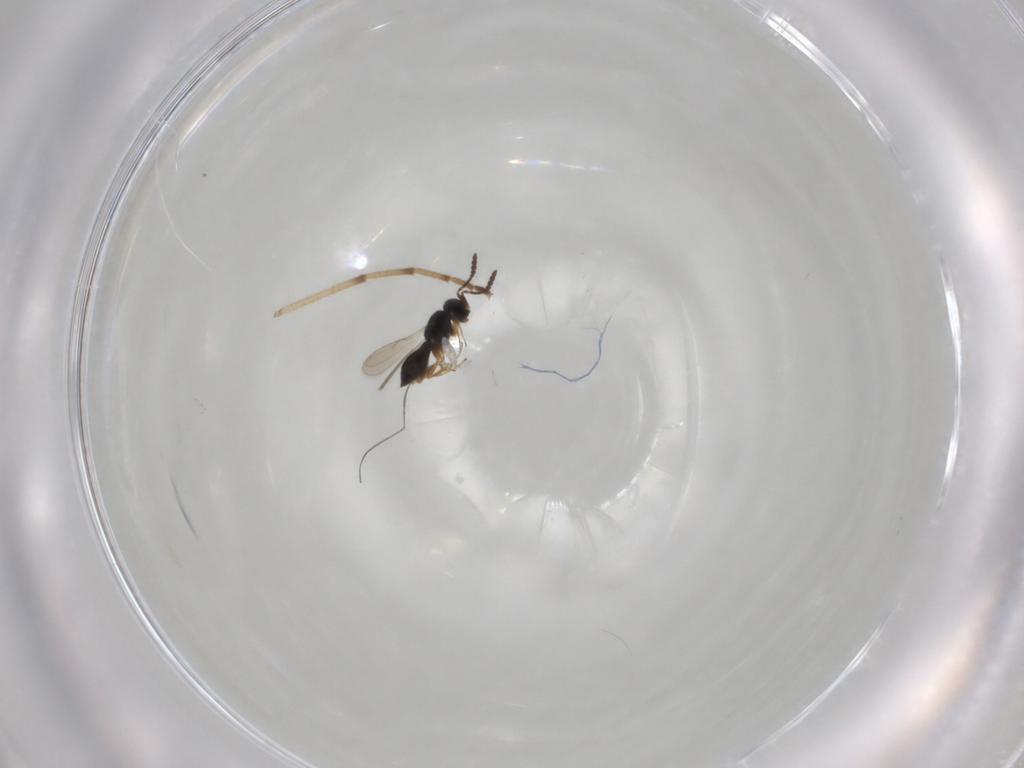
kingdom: Animalia
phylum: Arthropoda
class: Insecta
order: Hymenoptera
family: Scelionidae
